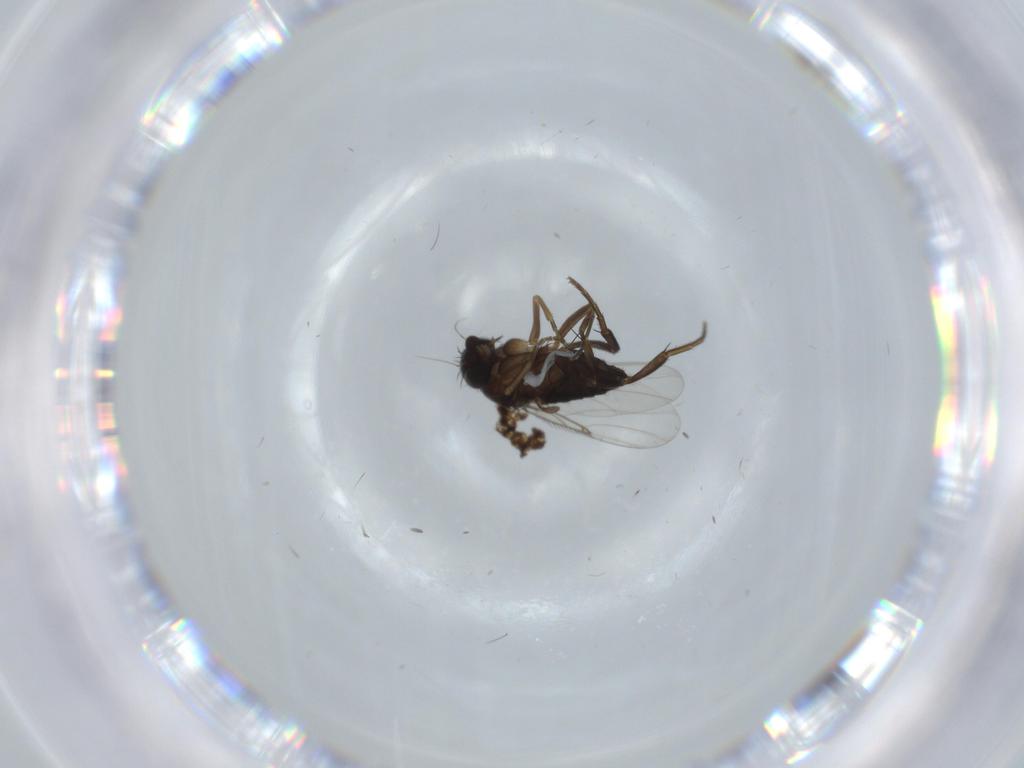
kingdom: Animalia
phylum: Arthropoda
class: Insecta
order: Diptera
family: Phoridae
